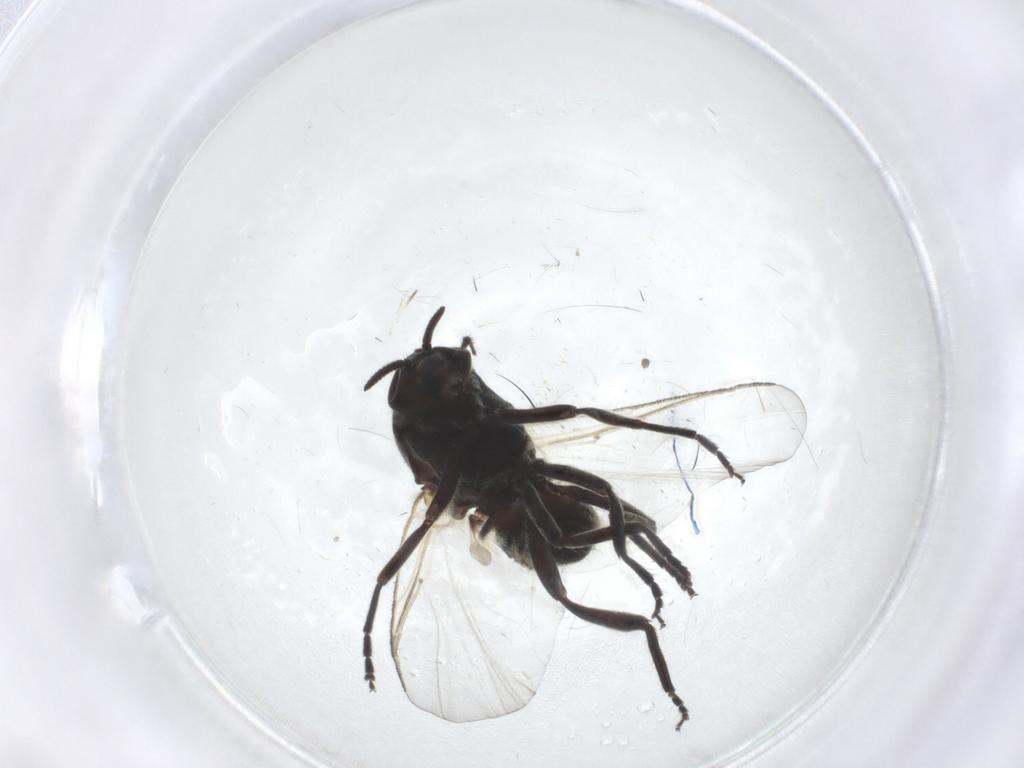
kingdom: Animalia
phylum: Arthropoda
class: Insecta
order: Diptera
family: Simuliidae
